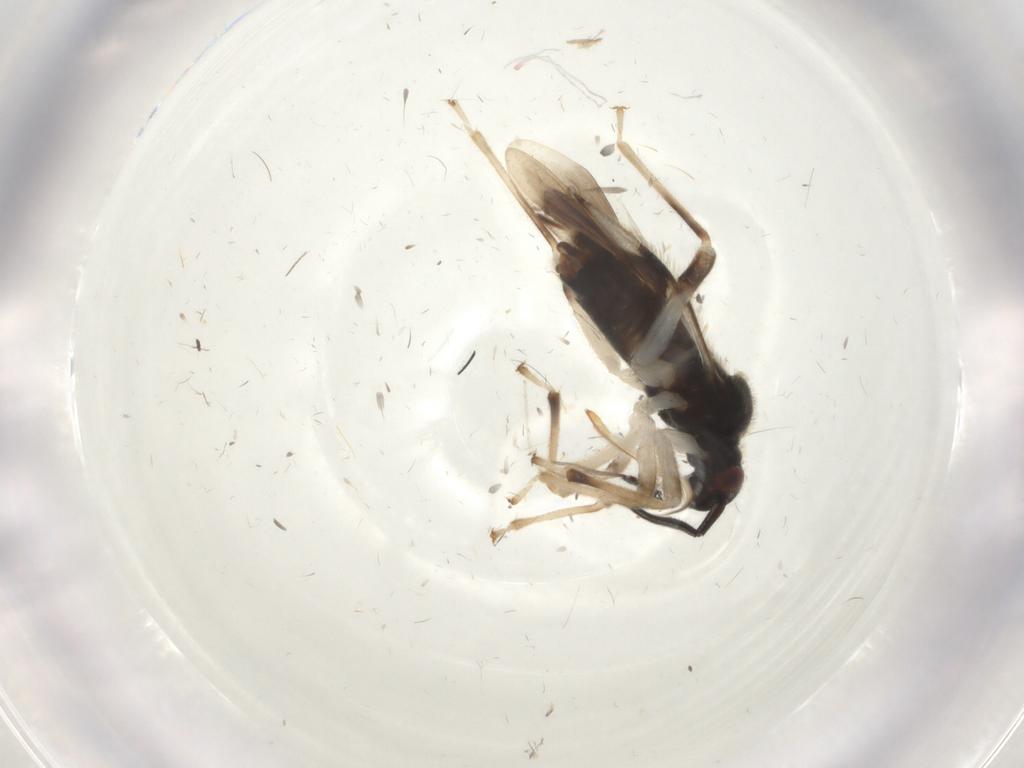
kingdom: Animalia
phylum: Arthropoda
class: Insecta
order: Hemiptera
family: Miridae
